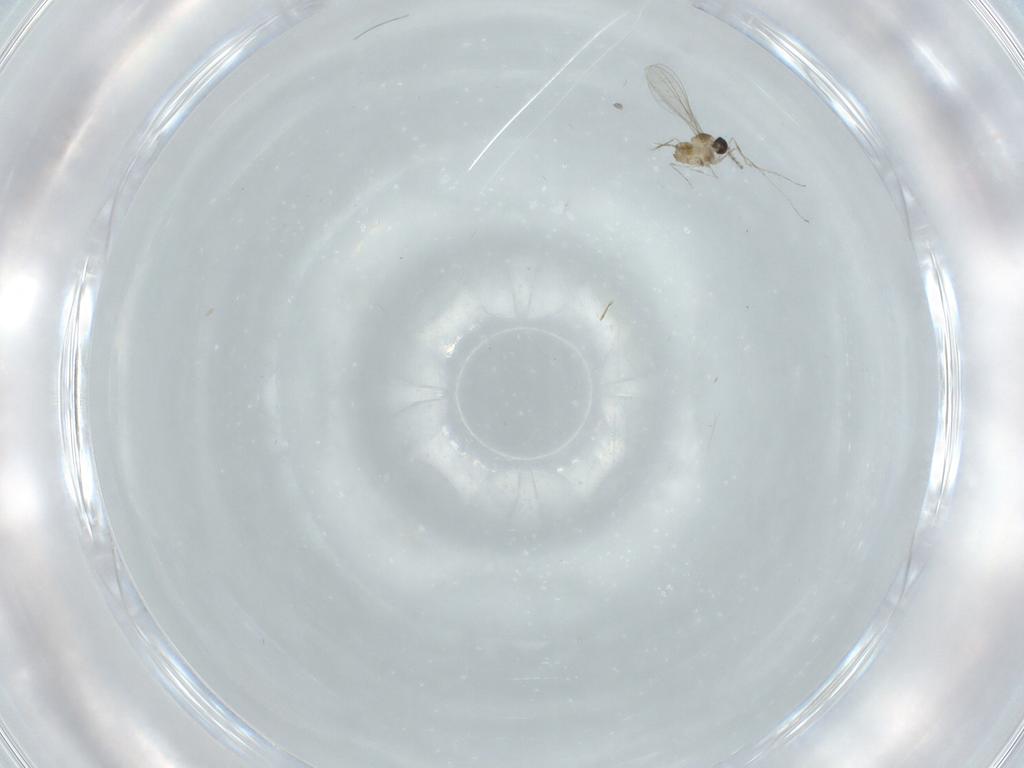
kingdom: Animalia
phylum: Arthropoda
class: Insecta
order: Diptera
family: Cecidomyiidae
